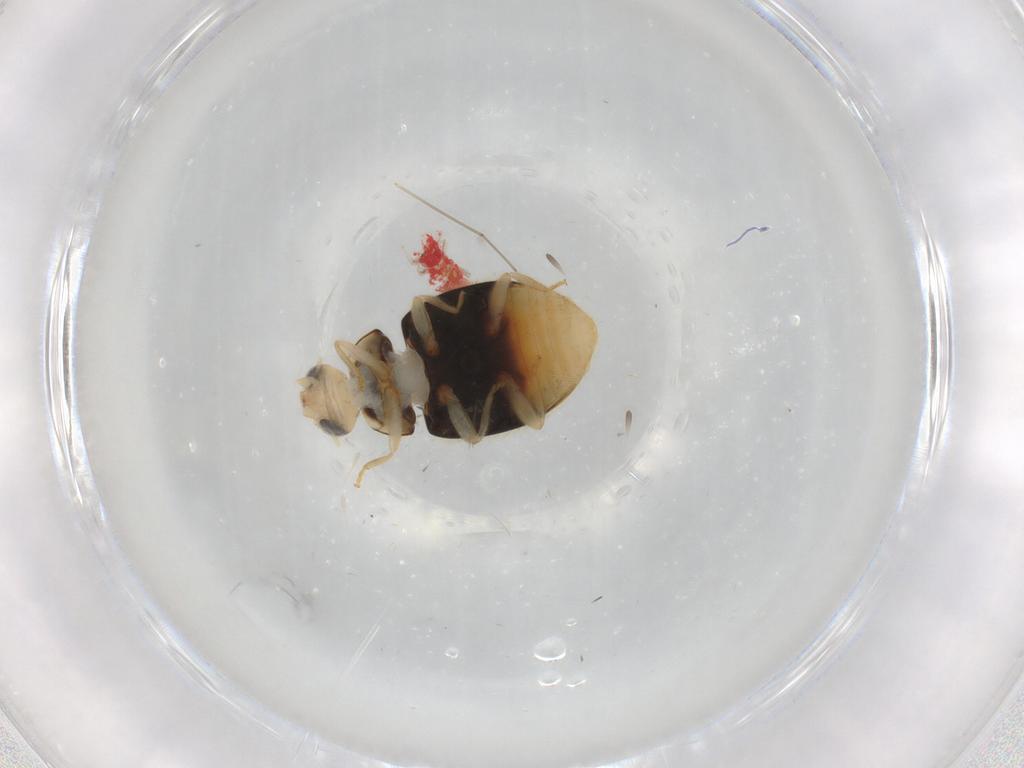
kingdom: Animalia
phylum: Arthropoda
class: Insecta
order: Coleoptera
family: Coccinellidae
